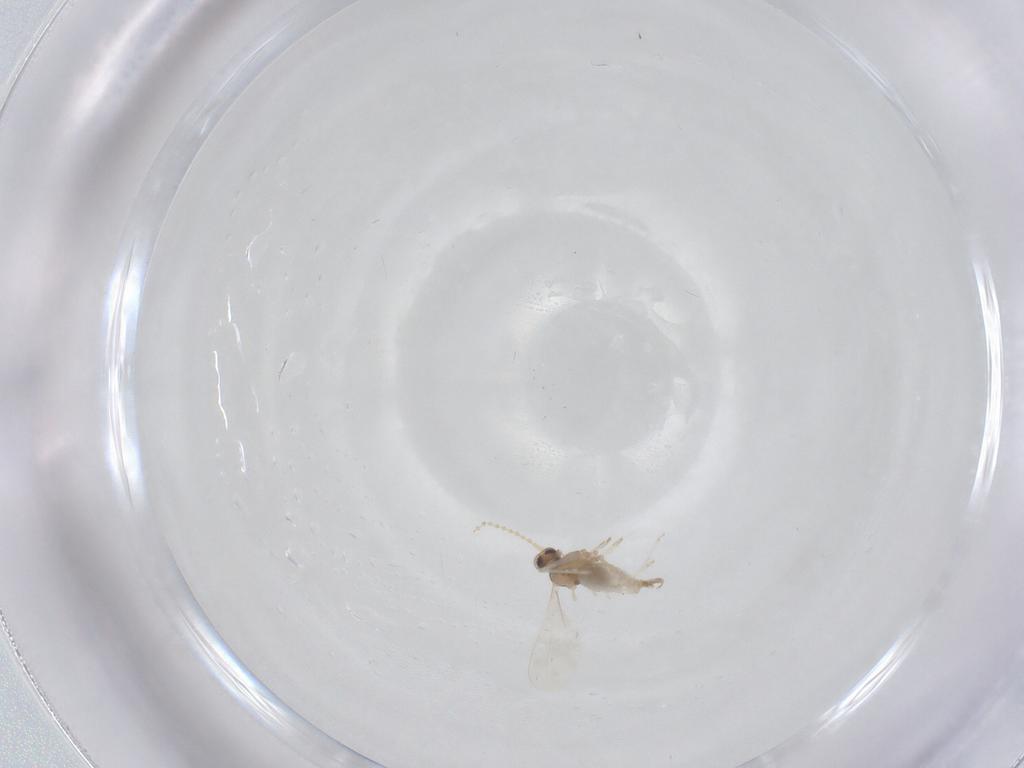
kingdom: Animalia
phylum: Arthropoda
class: Insecta
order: Diptera
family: Cecidomyiidae
